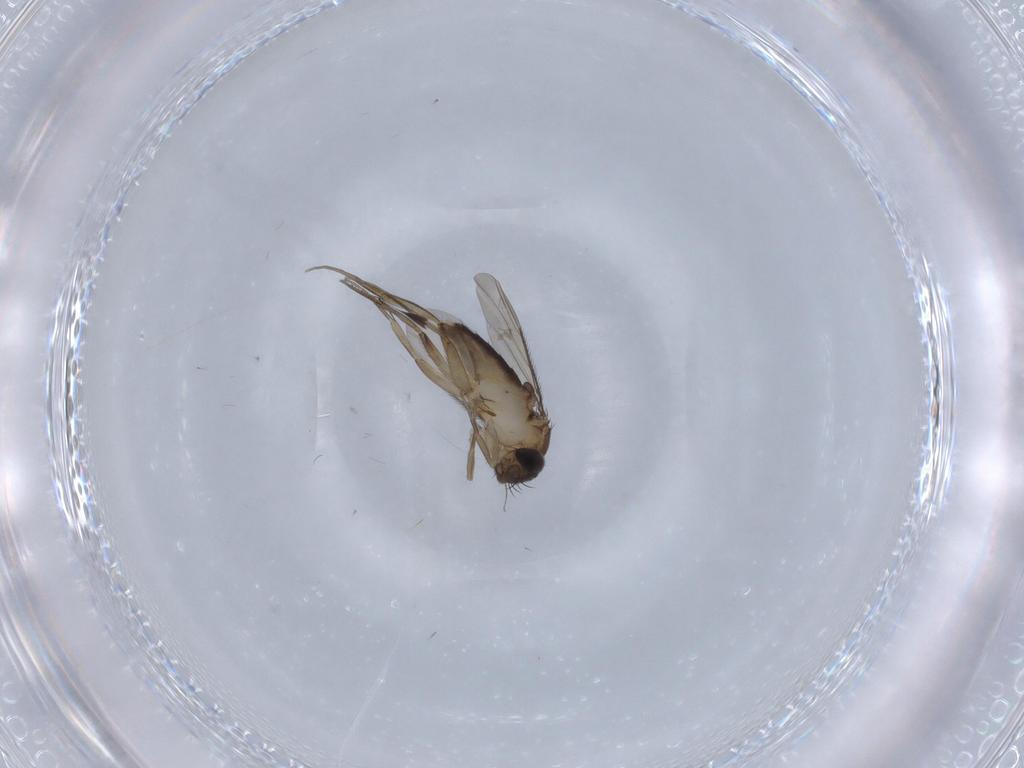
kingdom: Animalia
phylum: Arthropoda
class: Insecta
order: Diptera
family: Phoridae
